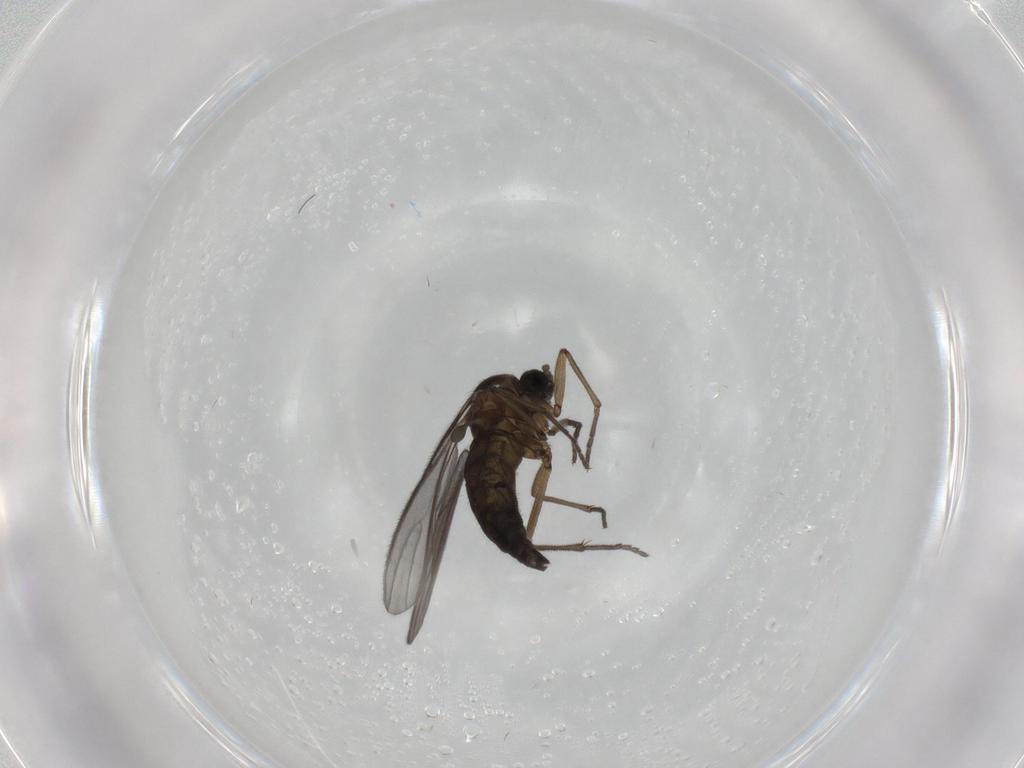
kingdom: Animalia
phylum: Arthropoda
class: Insecta
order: Diptera
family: Sciaridae
